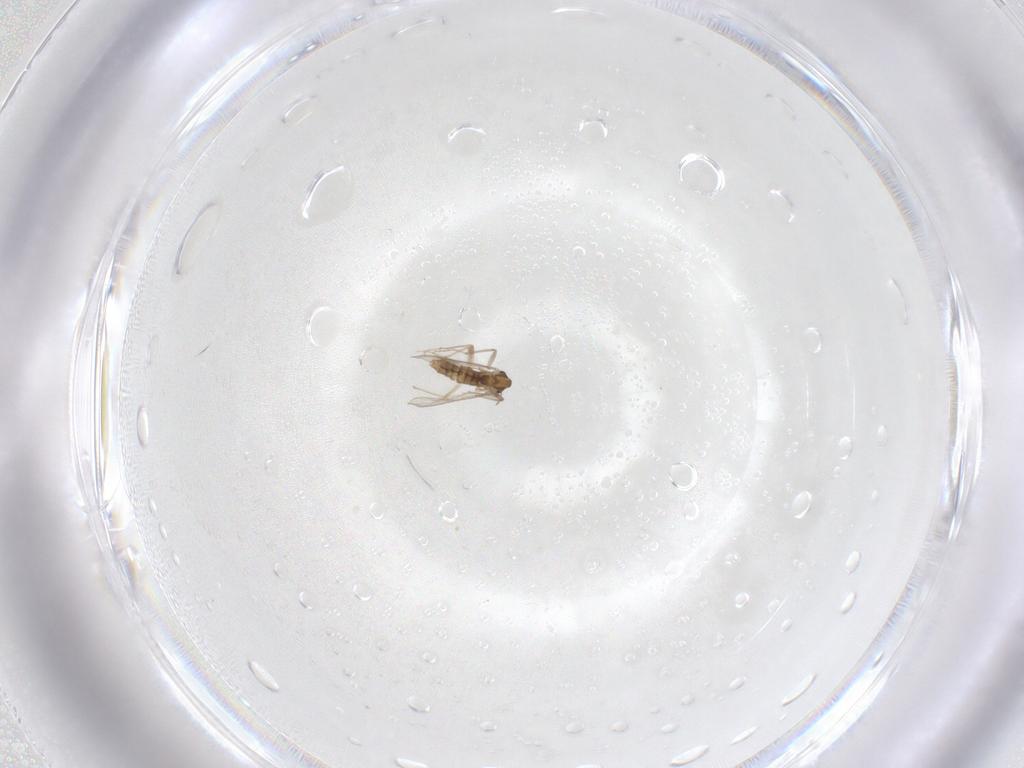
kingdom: Animalia
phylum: Arthropoda
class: Insecta
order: Diptera
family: Chironomidae
